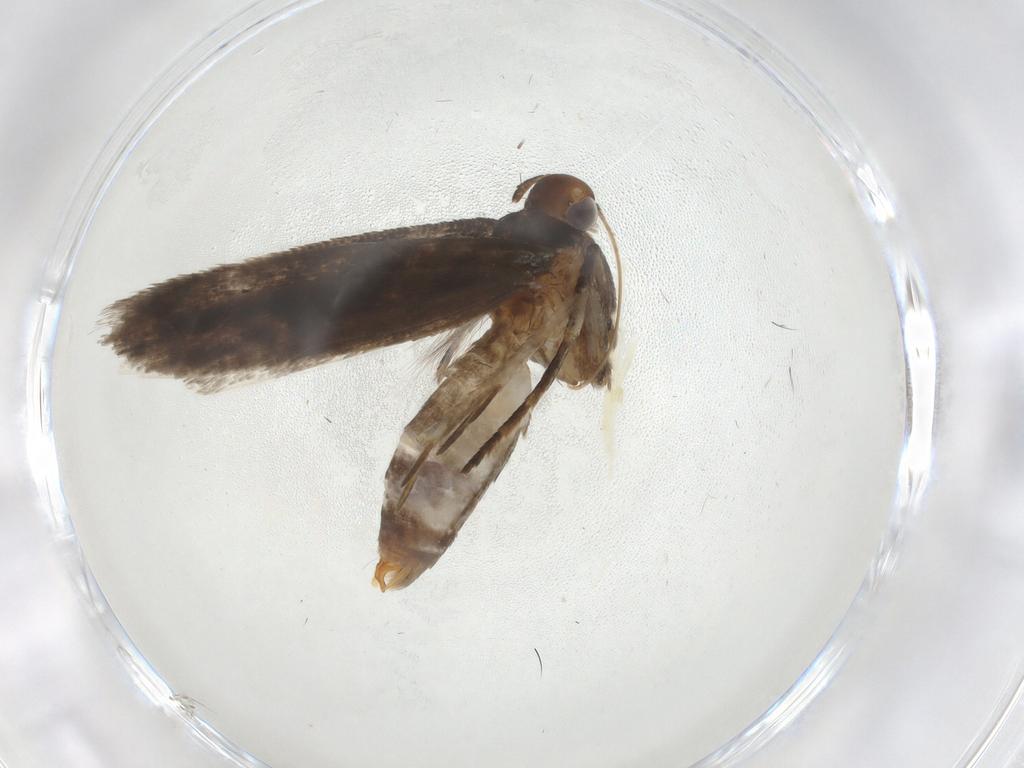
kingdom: Animalia
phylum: Arthropoda
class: Insecta
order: Lepidoptera
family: Gelechiidae
